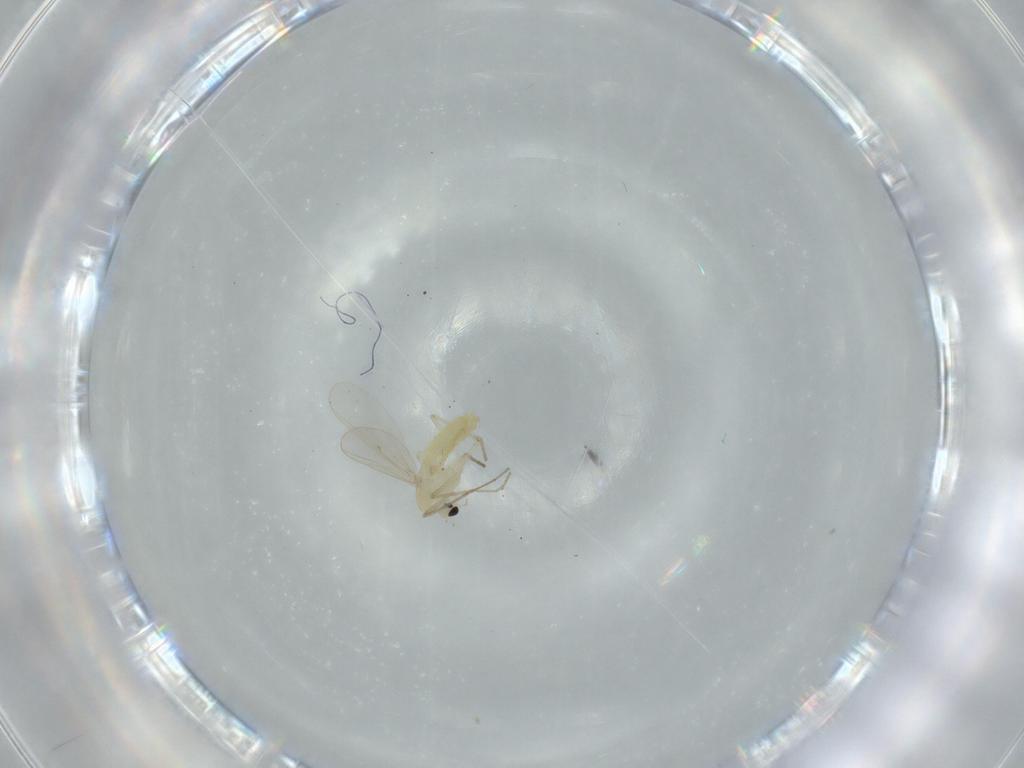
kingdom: Animalia
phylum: Arthropoda
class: Insecta
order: Diptera
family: Chironomidae
